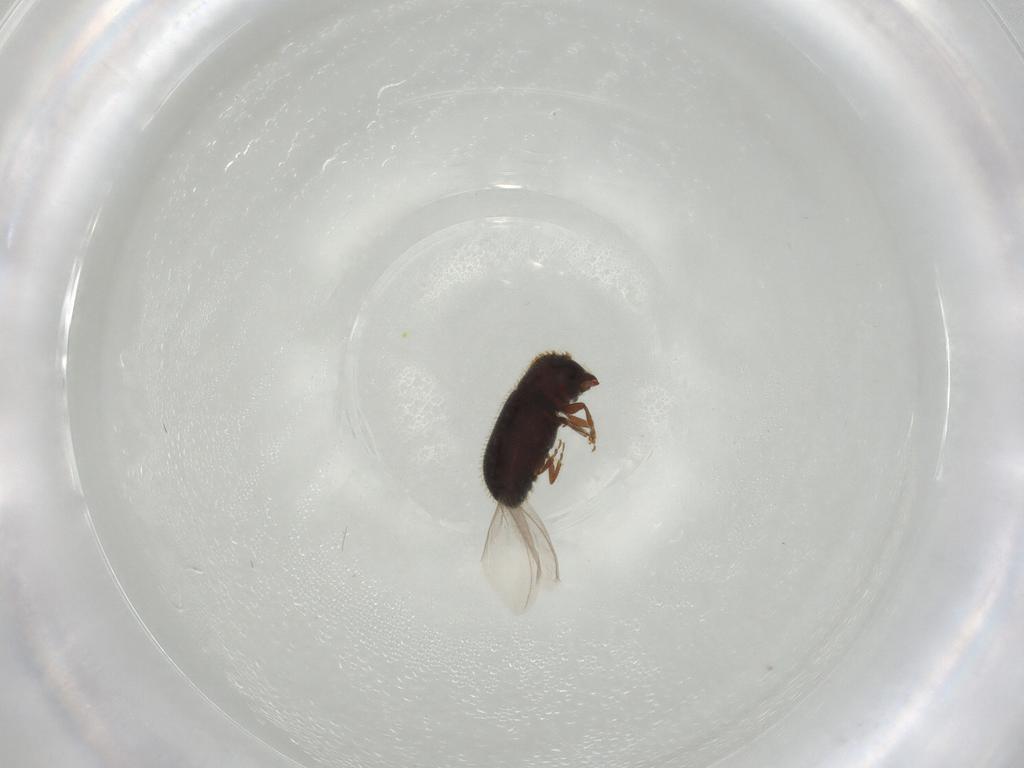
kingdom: Animalia
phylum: Arthropoda
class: Insecta
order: Coleoptera
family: Curculionidae
